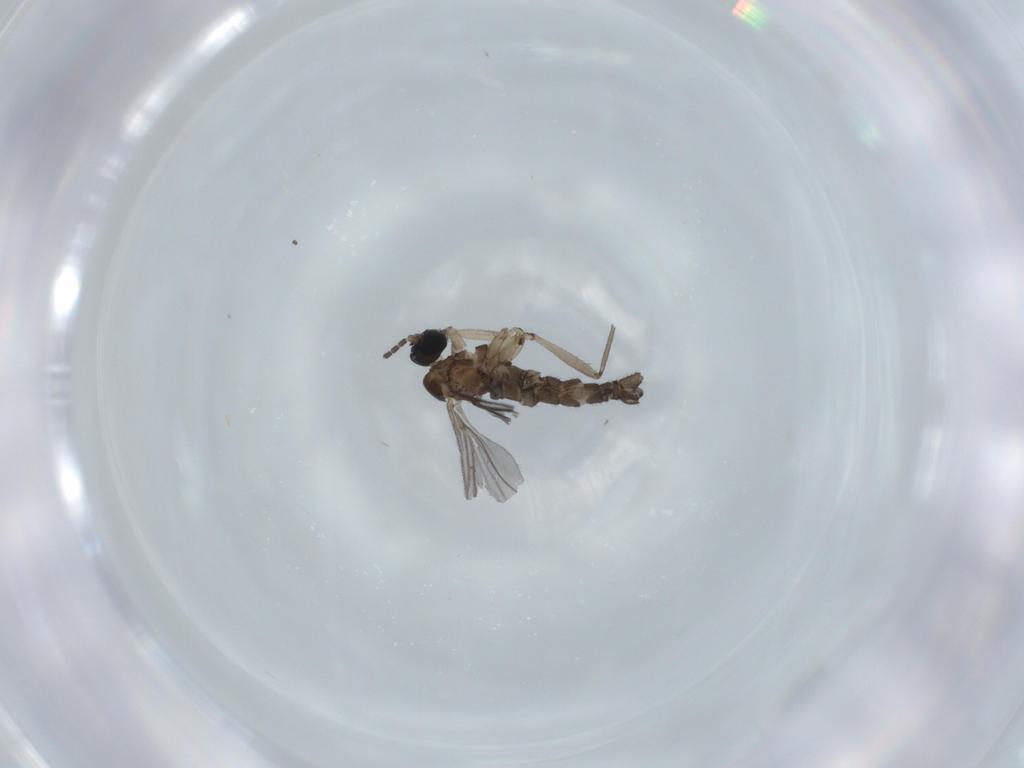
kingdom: Animalia
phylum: Arthropoda
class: Insecta
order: Diptera
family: Sciaridae
